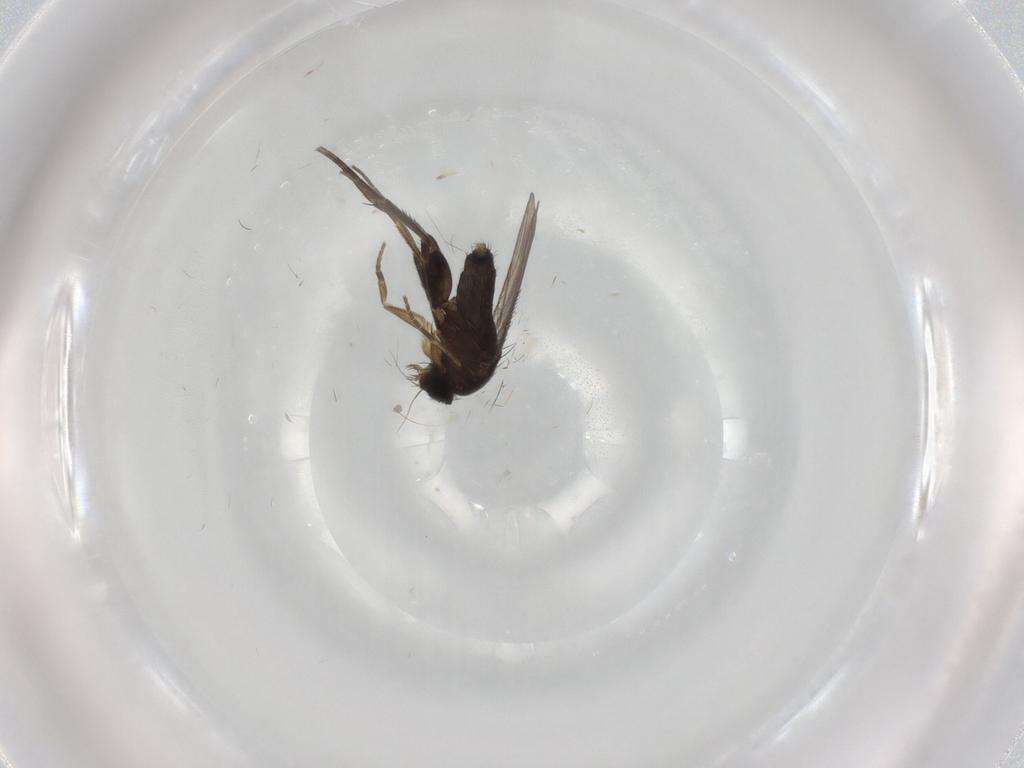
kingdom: Animalia
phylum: Arthropoda
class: Insecta
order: Diptera
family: Phoridae
